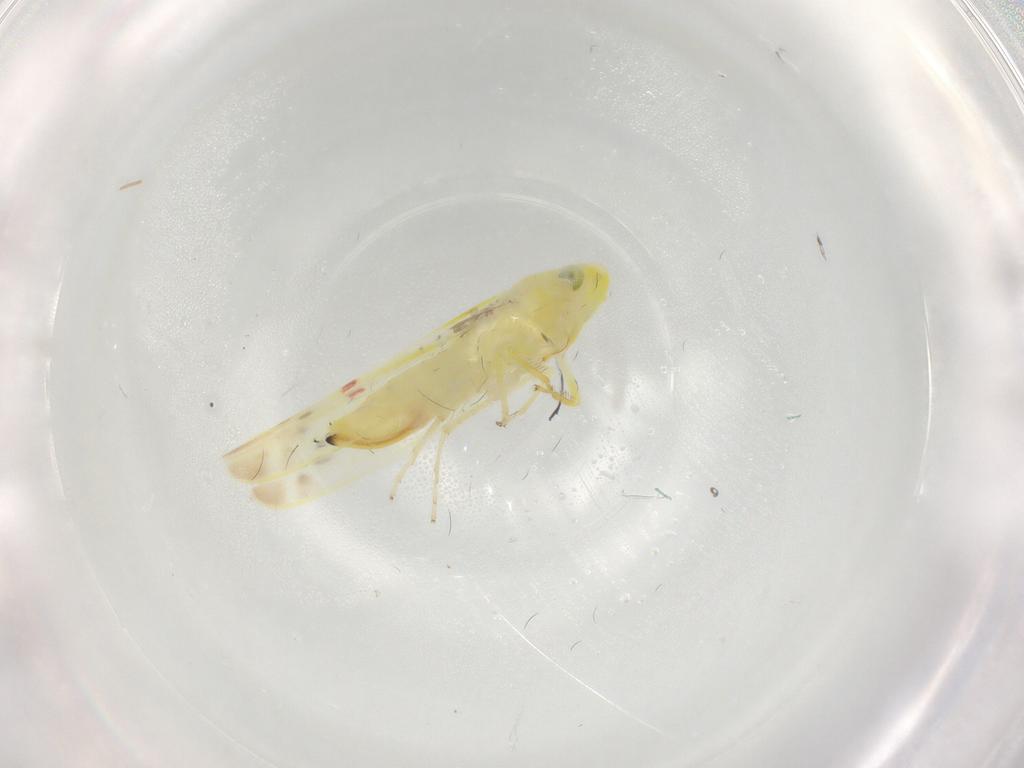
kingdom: Animalia
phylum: Arthropoda
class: Insecta
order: Hemiptera
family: Cicadellidae
